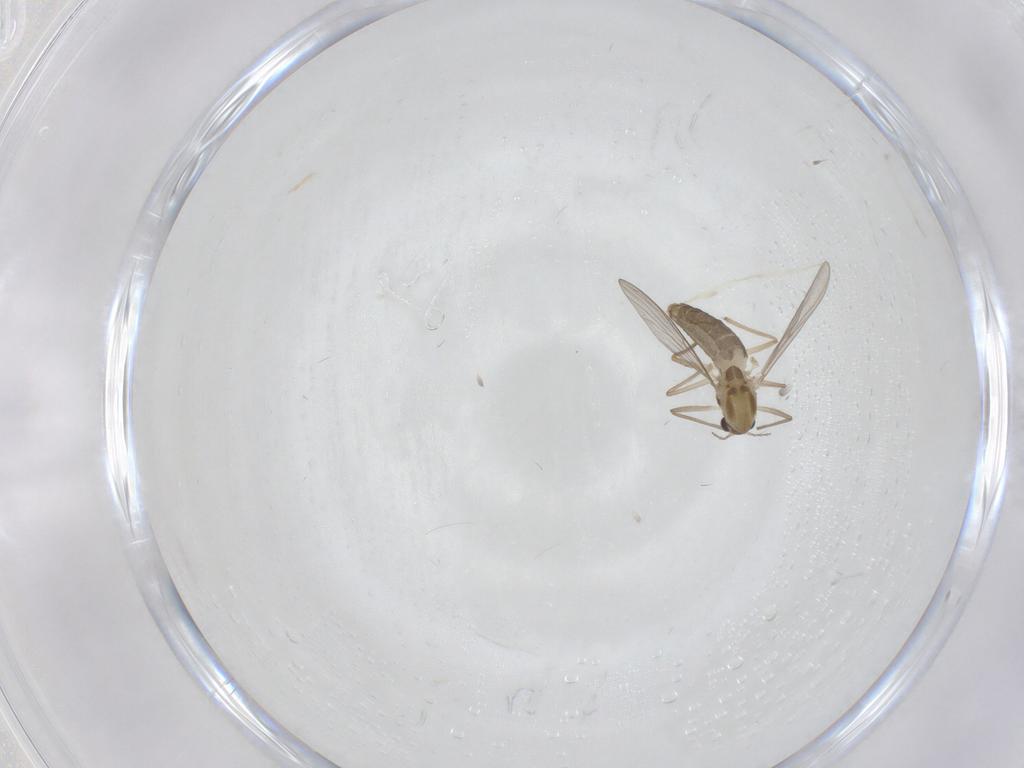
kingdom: Animalia
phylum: Arthropoda
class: Insecta
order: Diptera
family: Chironomidae
